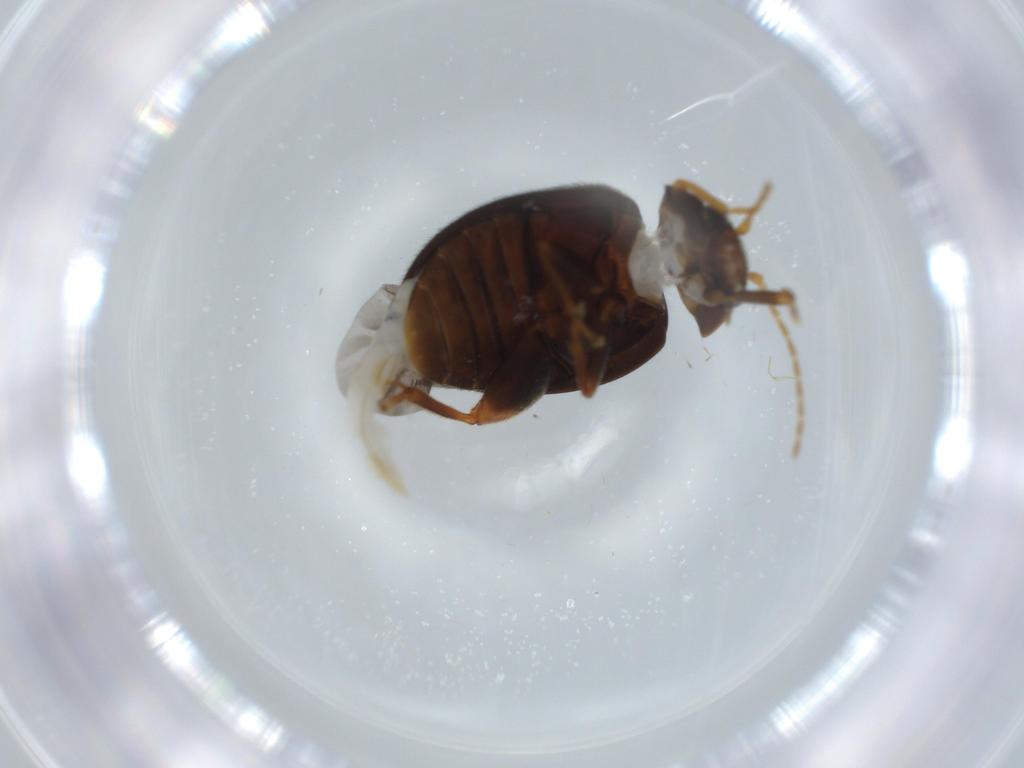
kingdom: Animalia
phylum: Arthropoda
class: Insecta
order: Coleoptera
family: Scirtidae
